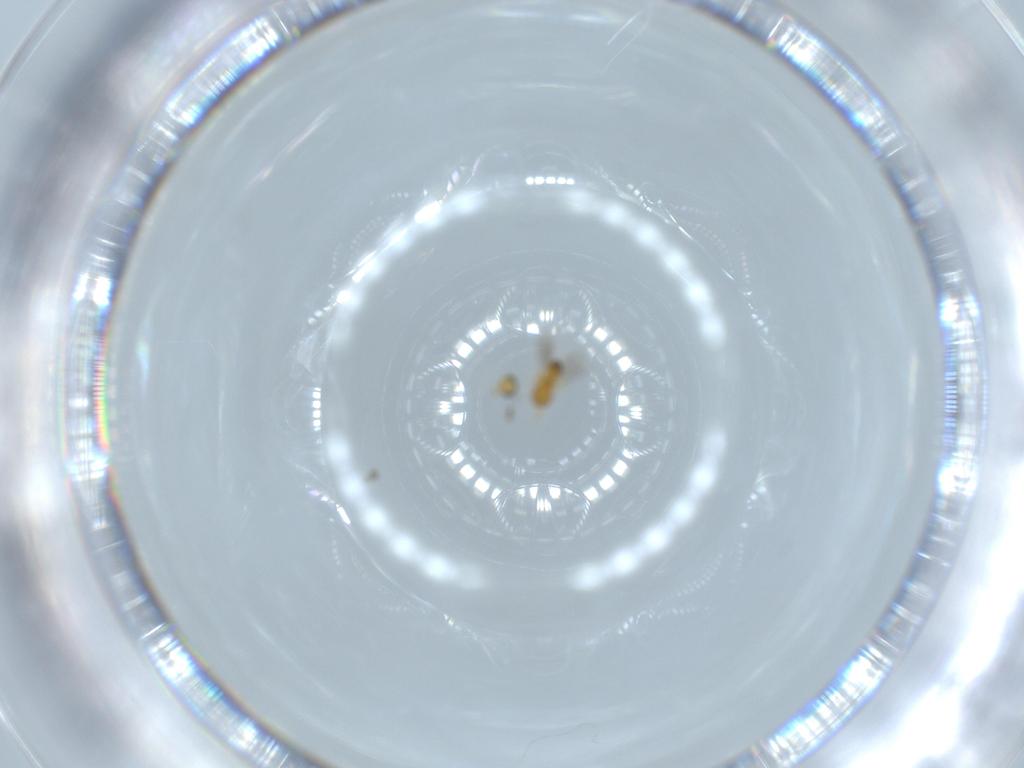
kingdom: Animalia
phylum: Arthropoda
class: Insecta
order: Hymenoptera
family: Platygastridae
